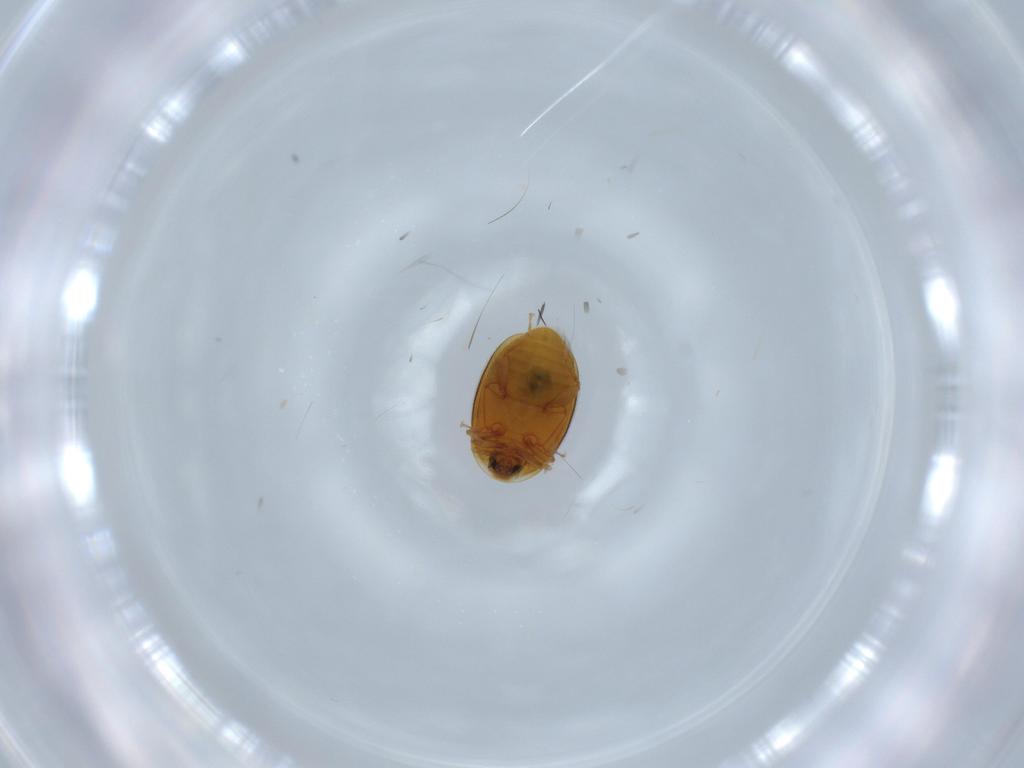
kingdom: Animalia
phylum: Arthropoda
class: Insecta
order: Coleoptera
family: Corylophidae
